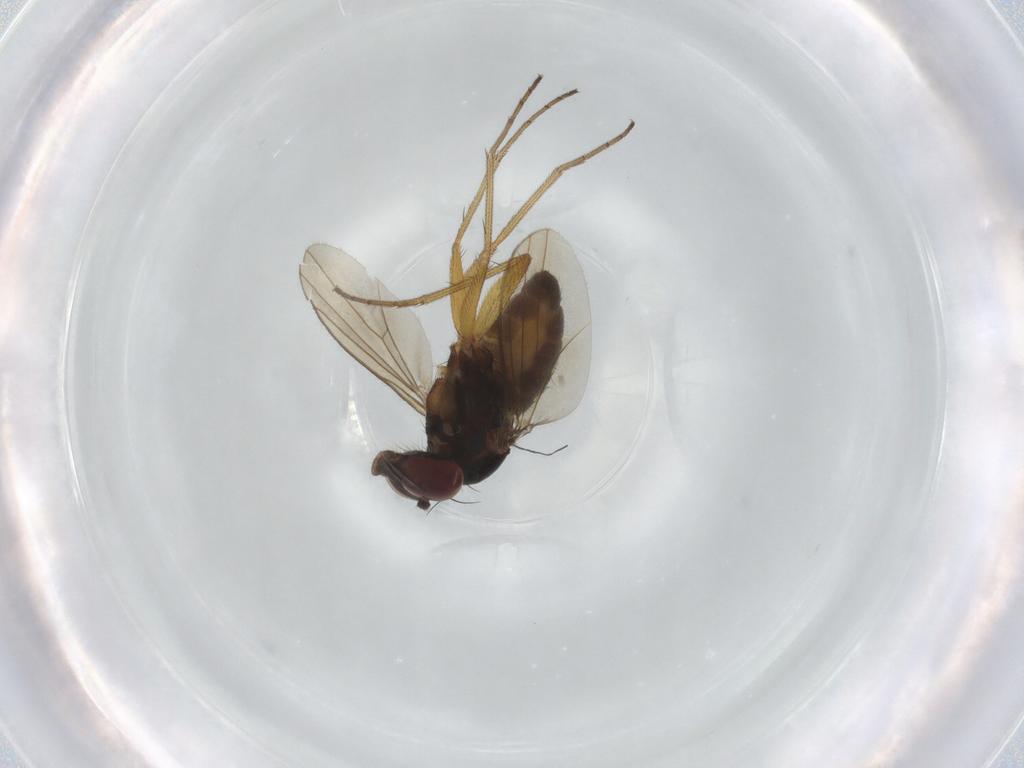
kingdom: Animalia
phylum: Arthropoda
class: Insecta
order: Diptera
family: Dolichopodidae
